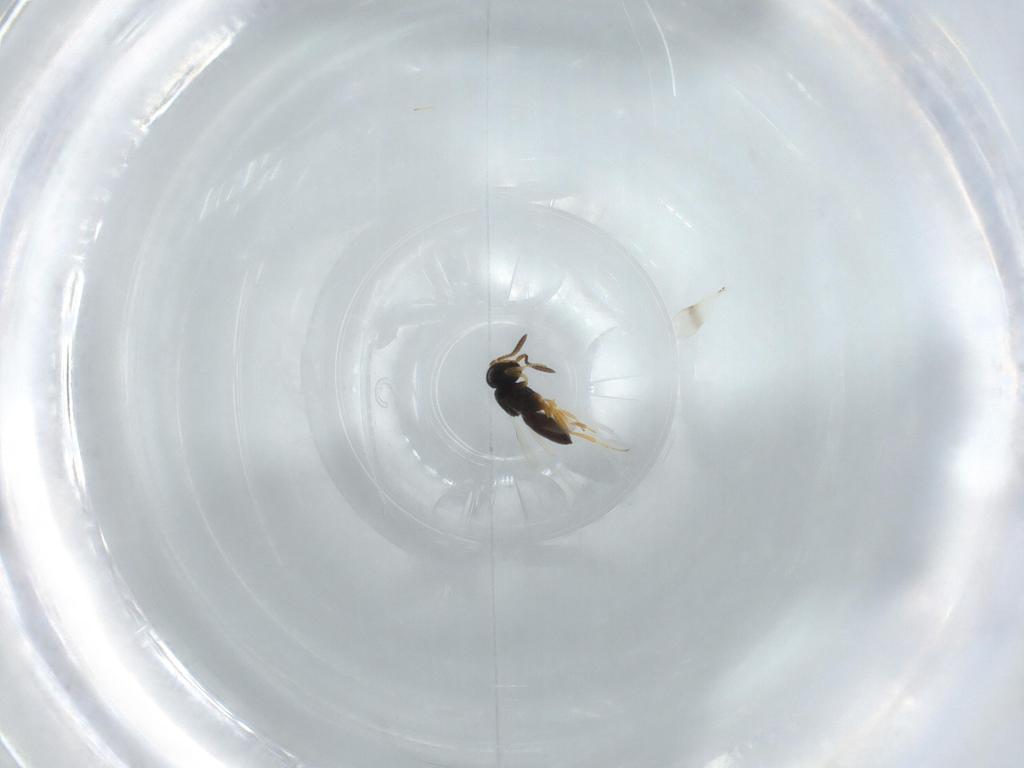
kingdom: Animalia
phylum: Arthropoda
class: Insecta
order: Hymenoptera
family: Scelionidae
